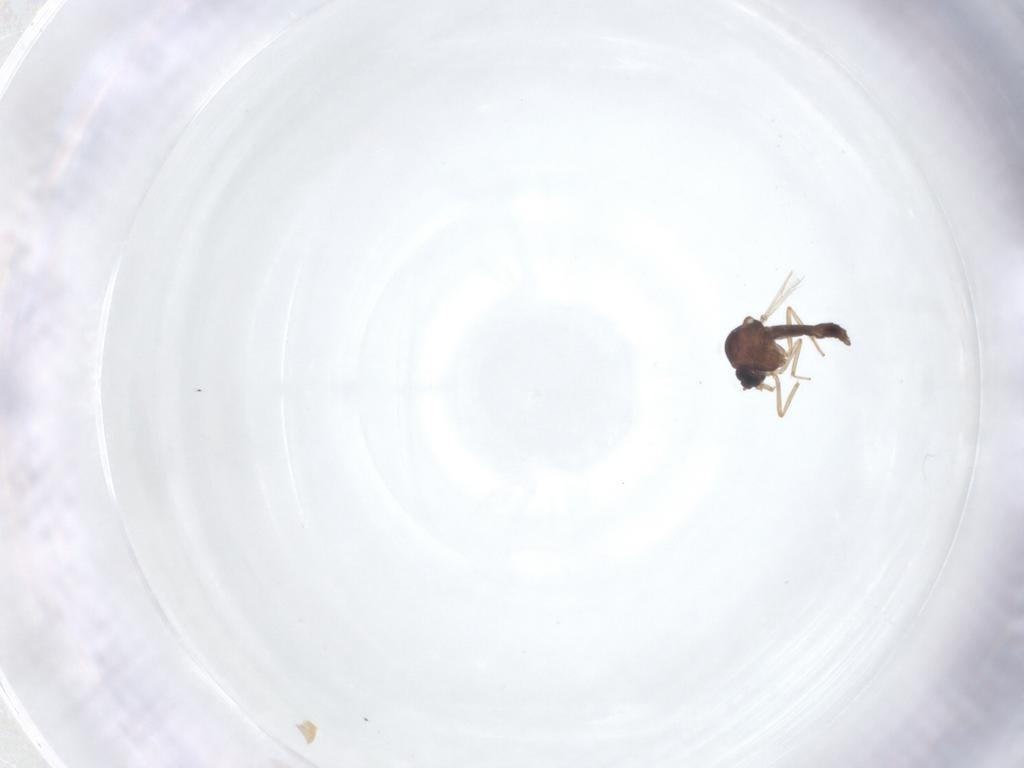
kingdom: Animalia
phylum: Arthropoda
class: Insecta
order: Diptera
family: Ceratopogonidae
